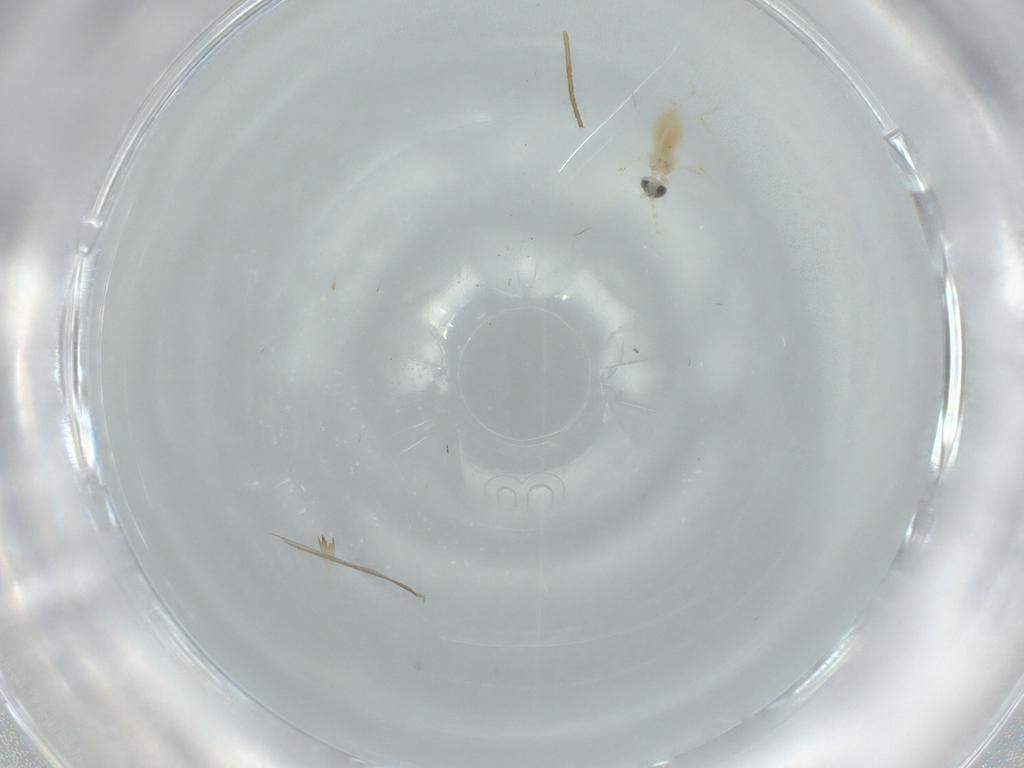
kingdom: Animalia
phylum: Arthropoda
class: Insecta
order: Diptera
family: Cecidomyiidae
